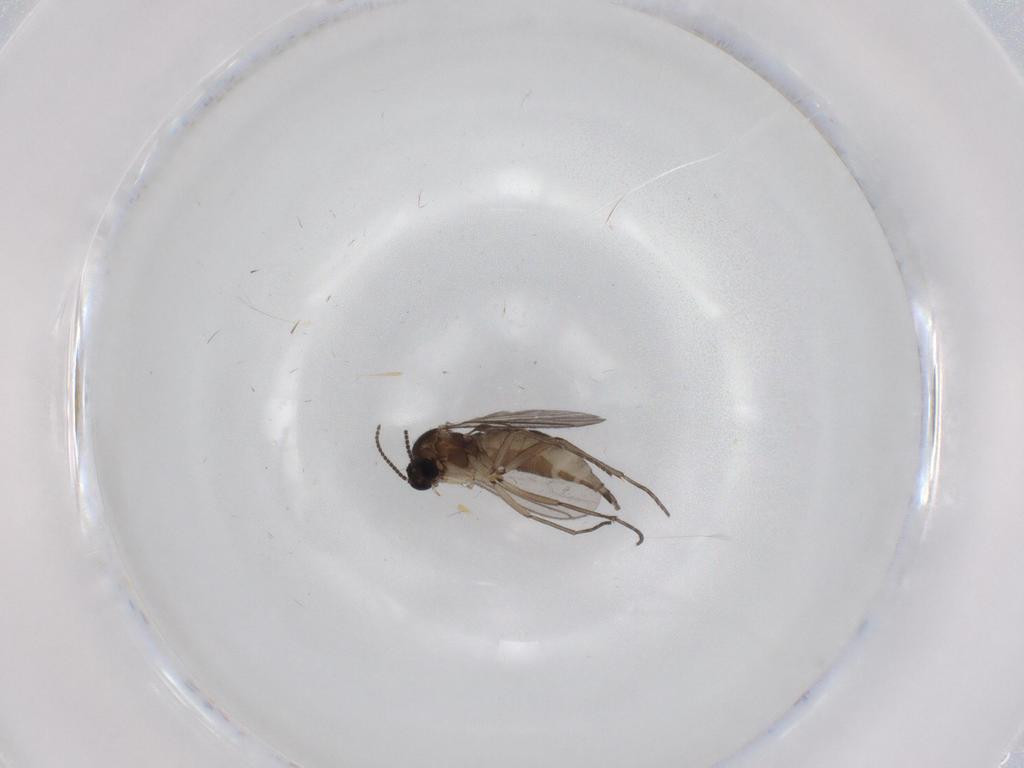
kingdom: Animalia
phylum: Arthropoda
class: Insecta
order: Diptera
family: Sciaridae
